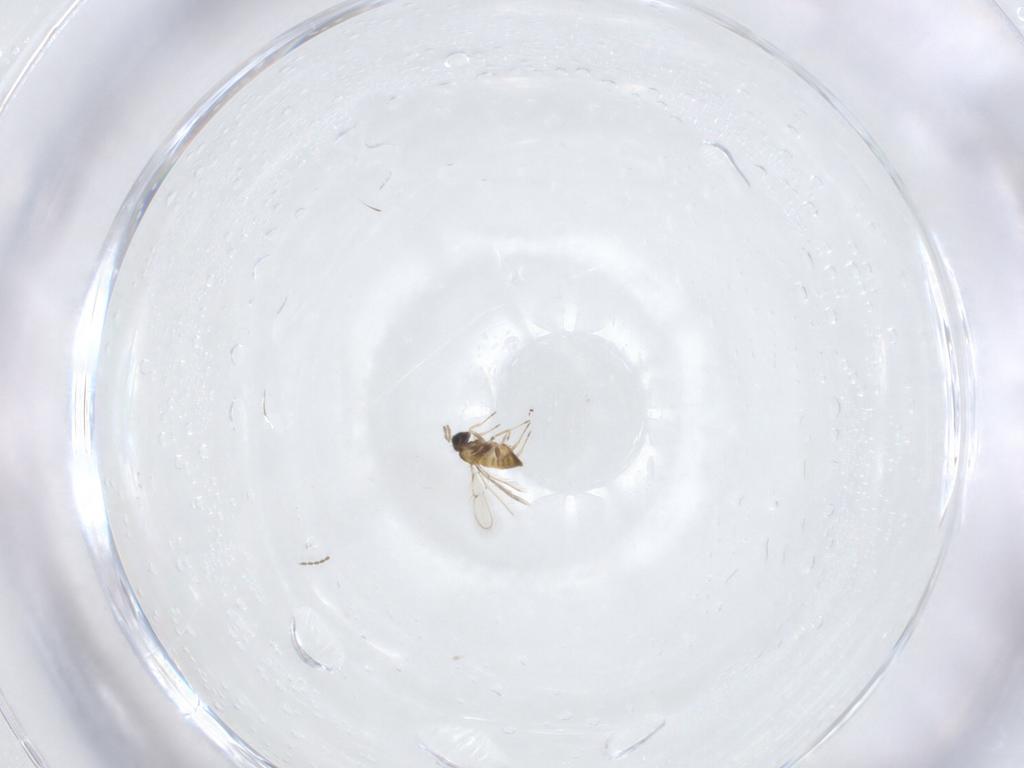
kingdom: Animalia
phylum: Arthropoda
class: Insecta
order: Hymenoptera
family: Trichogrammatidae
